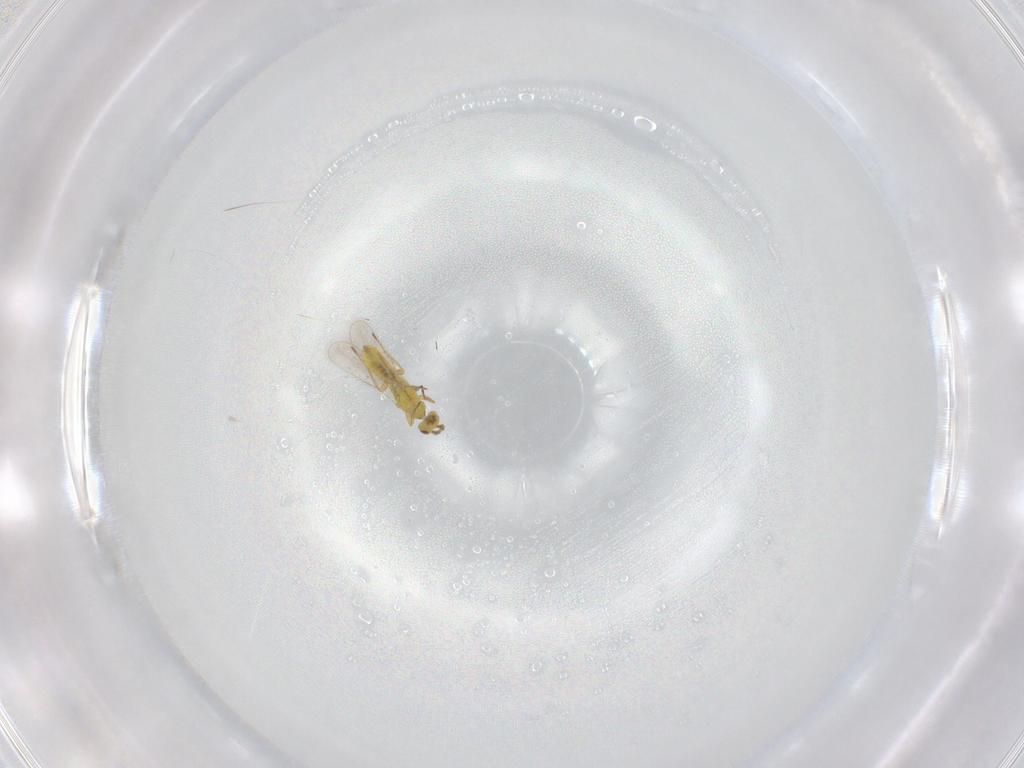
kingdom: Animalia
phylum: Arthropoda
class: Insecta
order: Hymenoptera
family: Eulophidae
